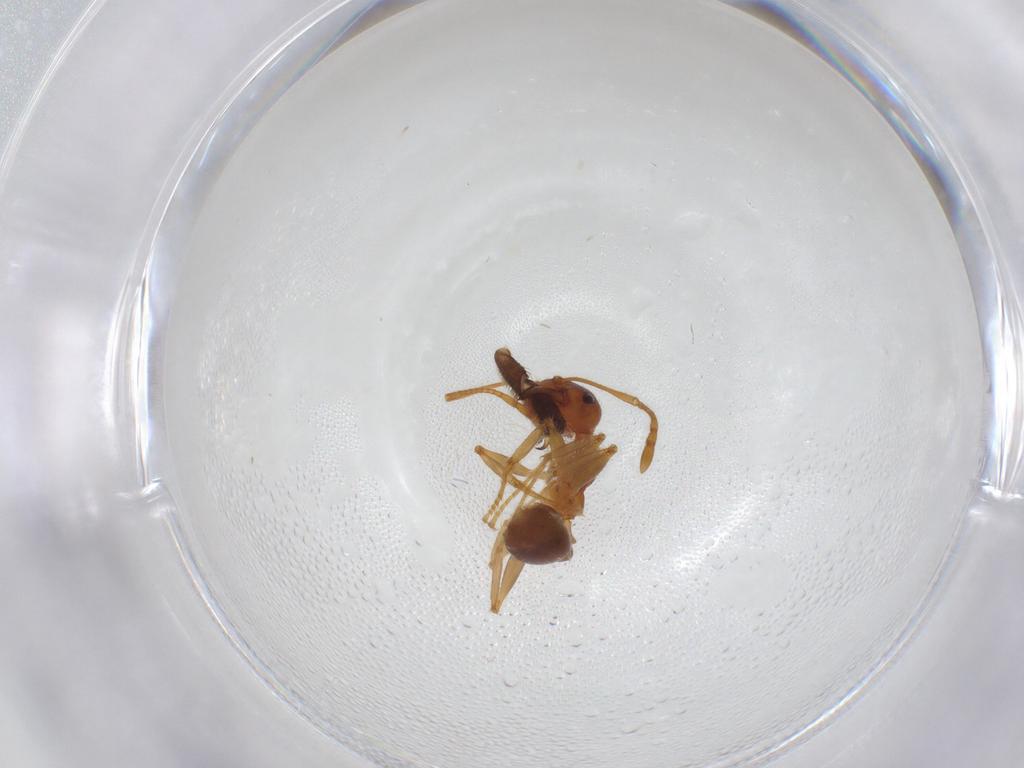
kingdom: Animalia
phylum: Arthropoda
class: Insecta
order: Hymenoptera
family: Formicidae
